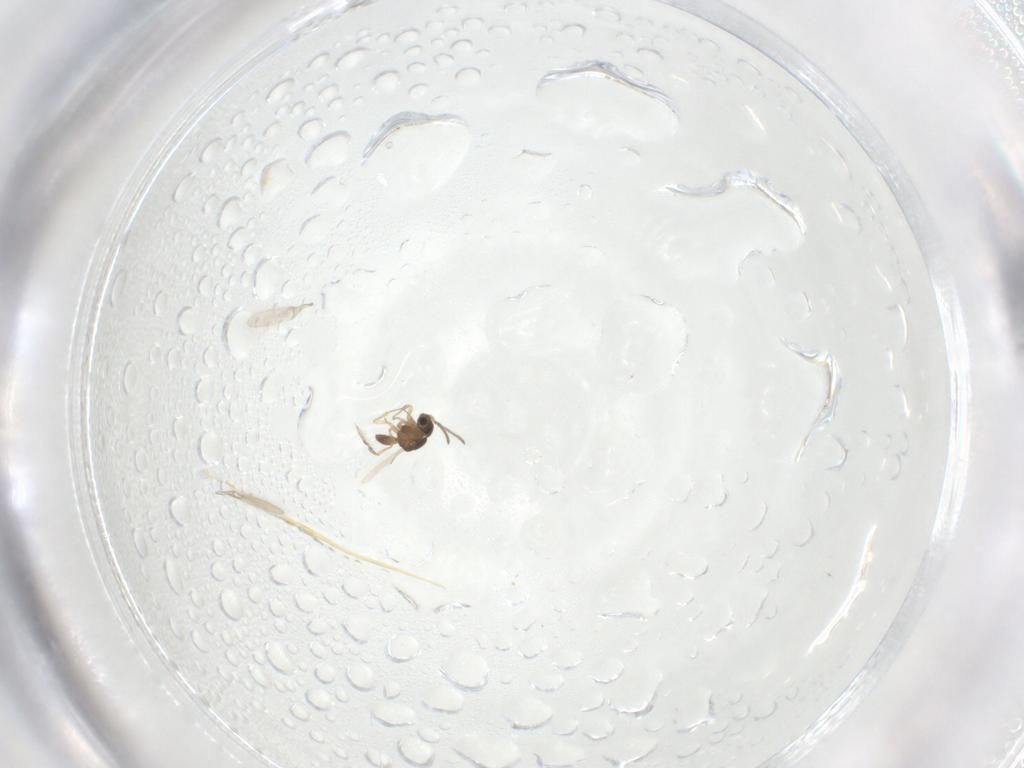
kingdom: Animalia
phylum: Arthropoda
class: Insecta
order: Hymenoptera
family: Scelionidae
